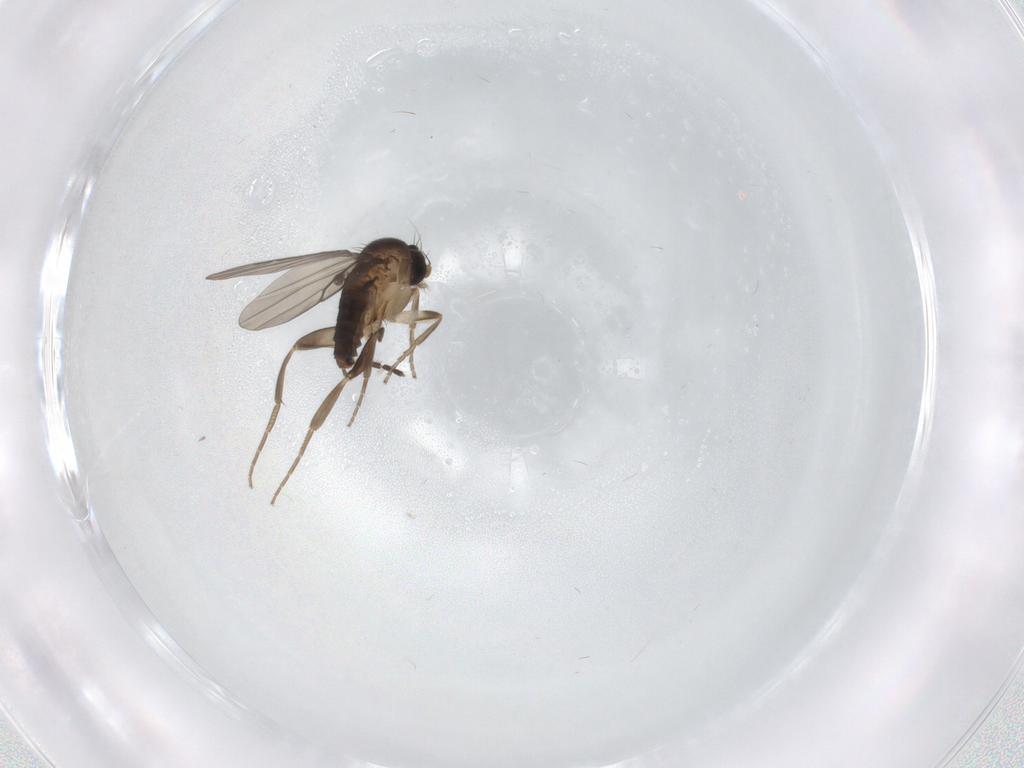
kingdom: Animalia
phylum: Arthropoda
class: Insecta
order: Diptera
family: Sciaridae
